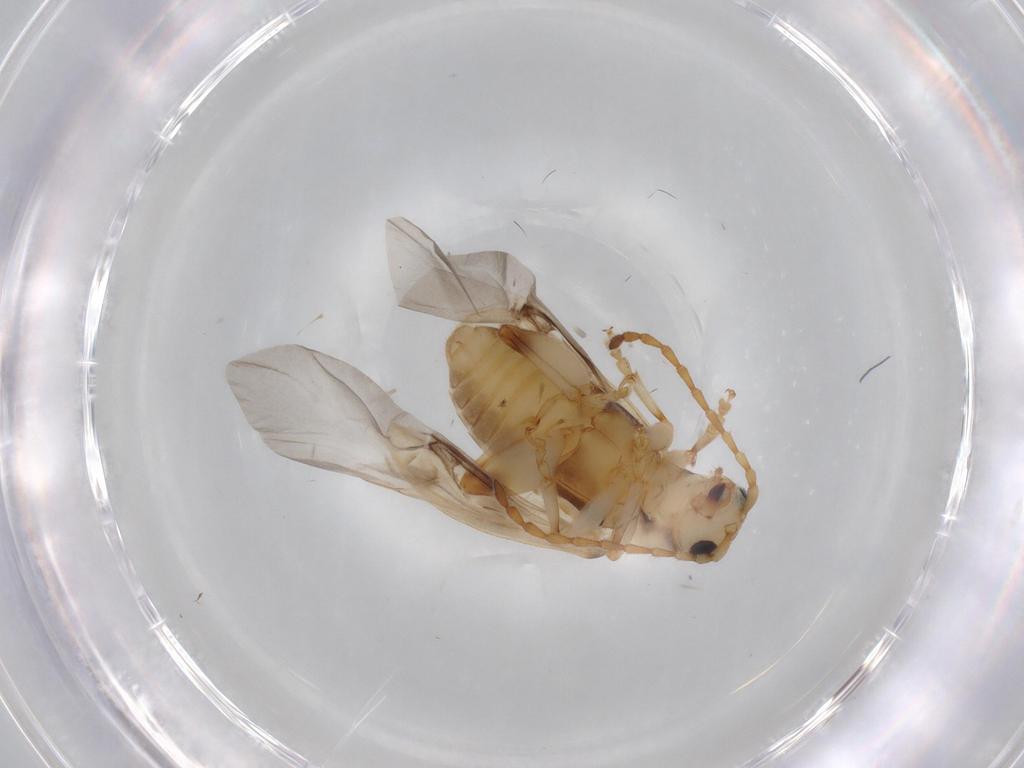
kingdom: Animalia
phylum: Arthropoda
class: Insecta
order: Coleoptera
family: Chrysomelidae
